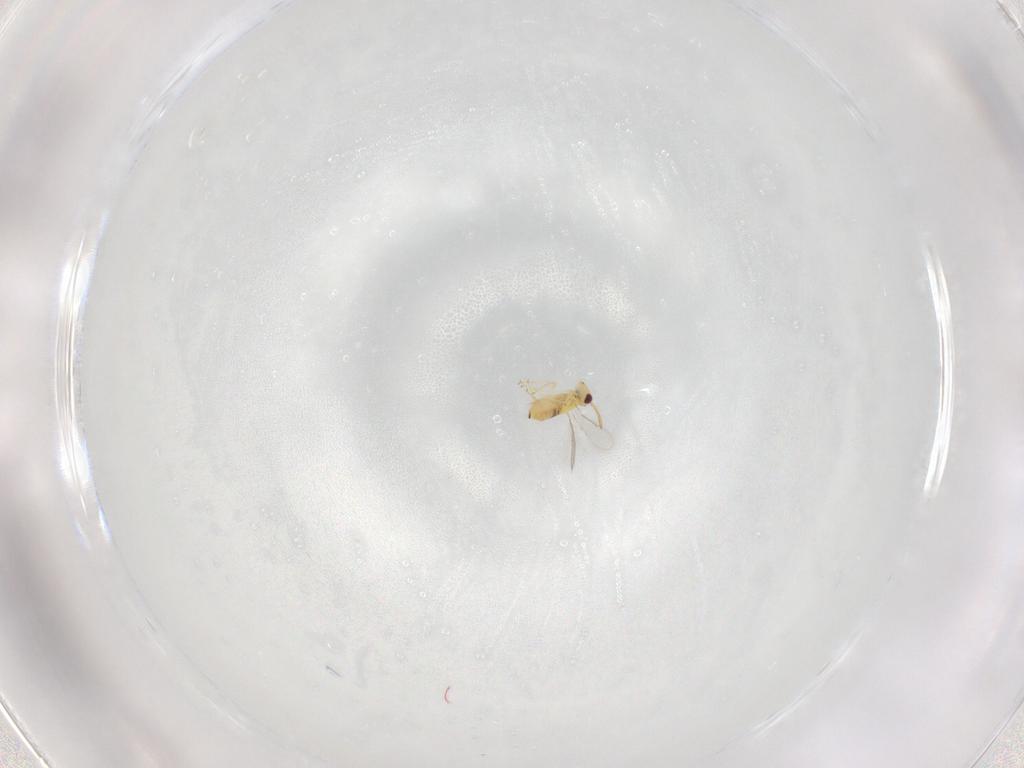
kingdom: Animalia
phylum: Arthropoda
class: Insecta
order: Hymenoptera
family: Aphelinidae
